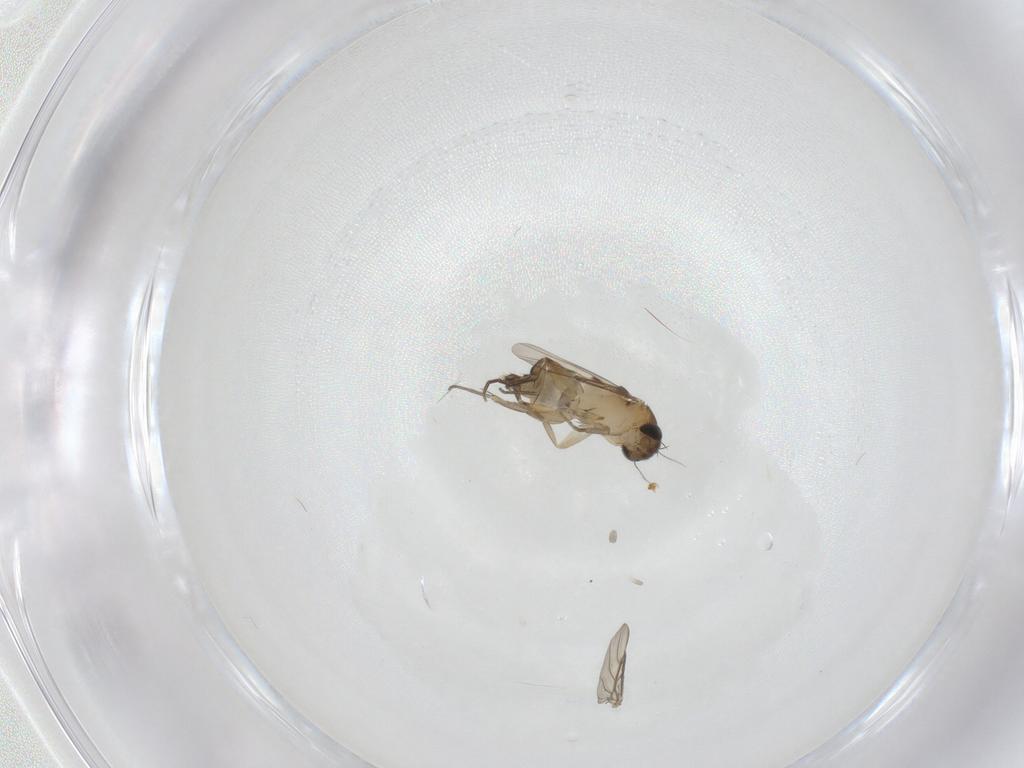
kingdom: Animalia
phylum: Arthropoda
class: Insecta
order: Diptera
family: Phoridae
